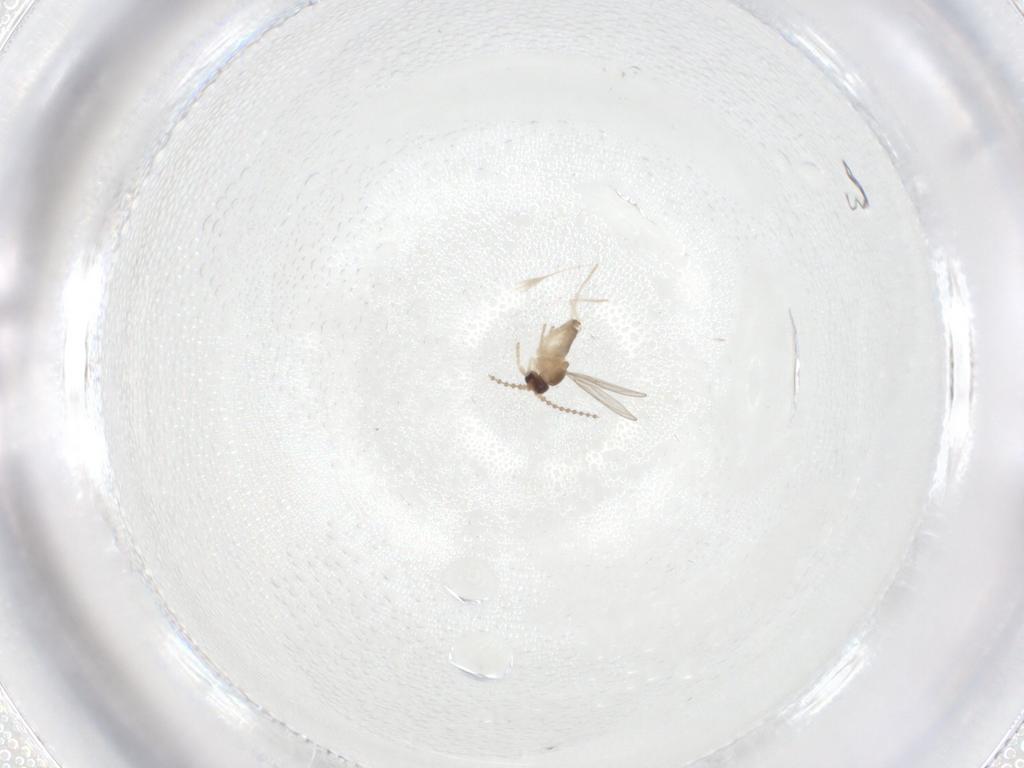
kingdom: Animalia
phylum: Arthropoda
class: Insecta
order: Diptera
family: Cecidomyiidae
